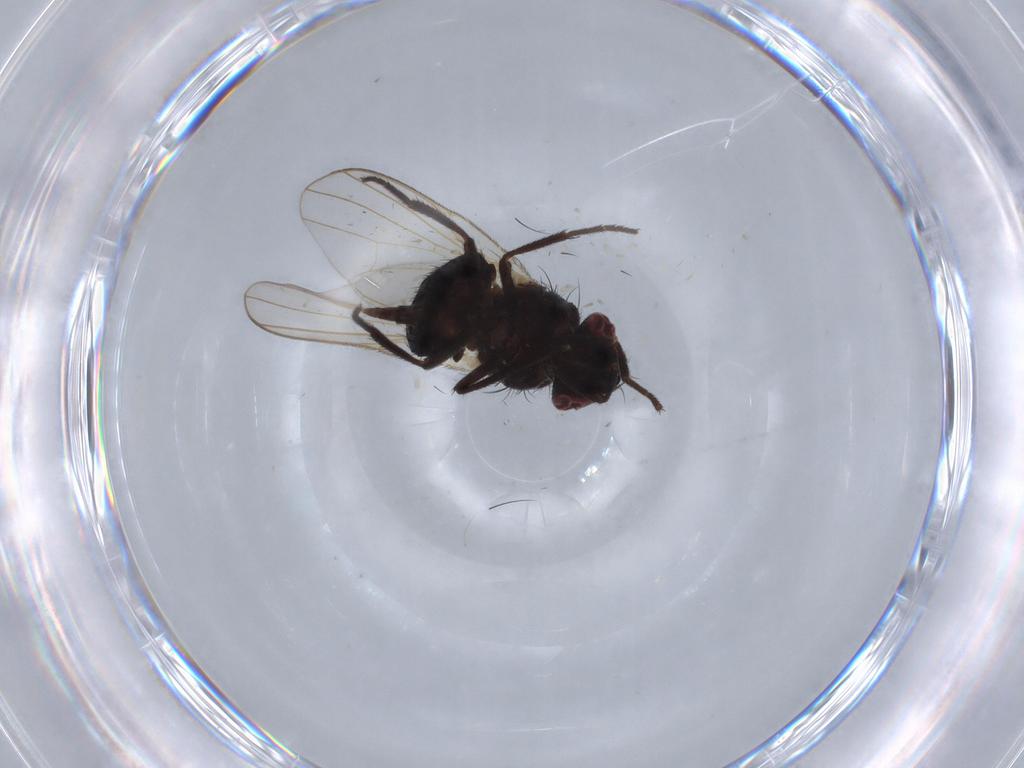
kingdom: Animalia
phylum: Arthropoda
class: Insecta
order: Diptera
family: Lonchaeidae
